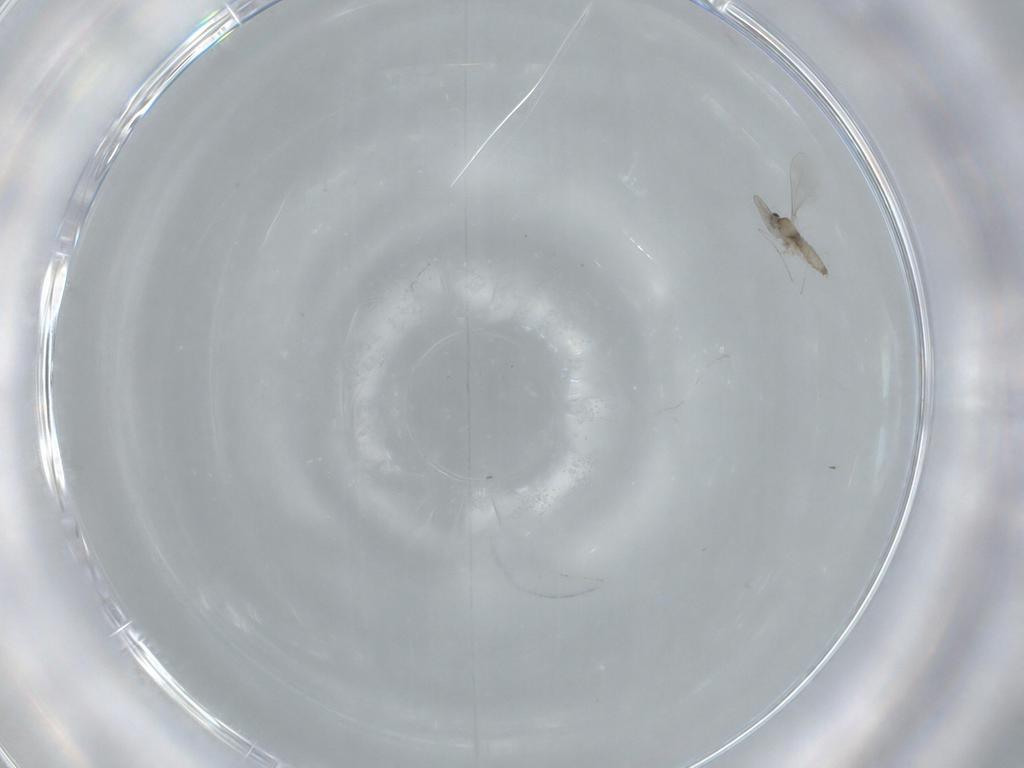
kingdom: Animalia
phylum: Arthropoda
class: Insecta
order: Diptera
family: Cecidomyiidae
